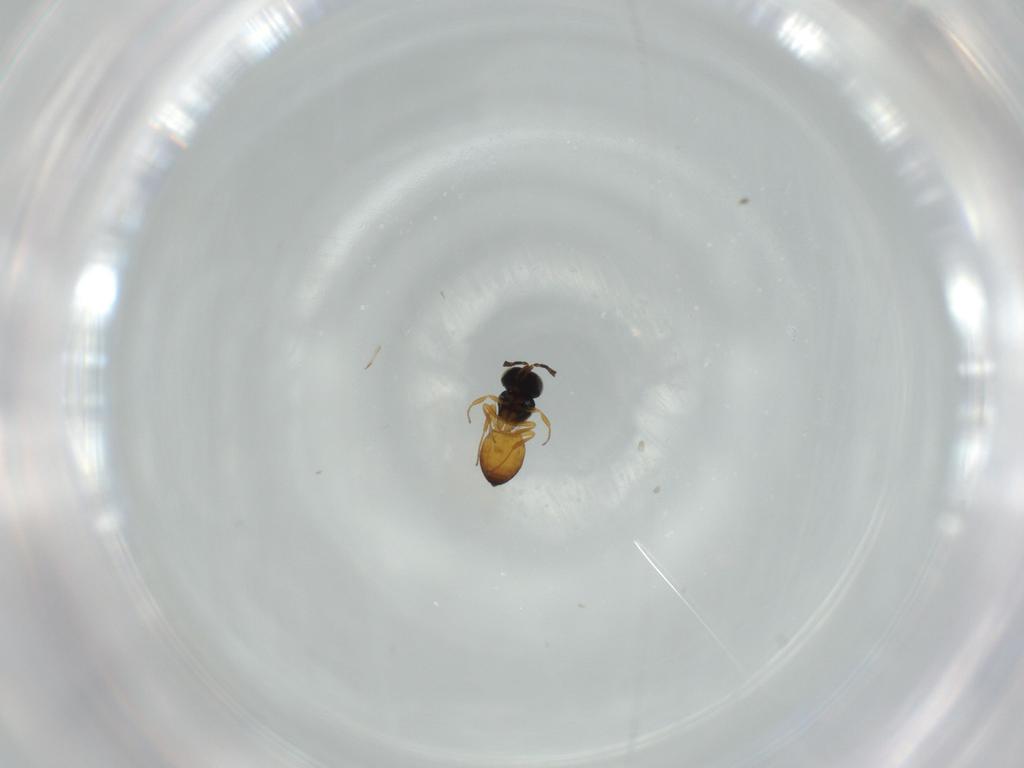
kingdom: Animalia
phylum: Arthropoda
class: Insecta
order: Hymenoptera
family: Scelionidae
